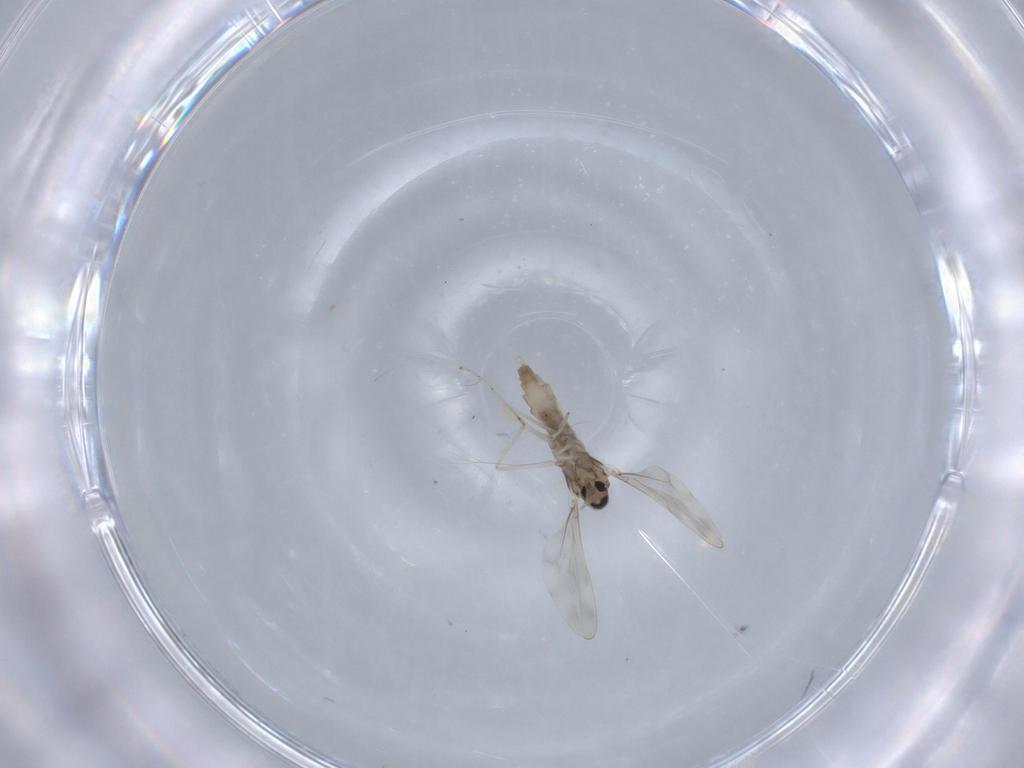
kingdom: Animalia
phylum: Arthropoda
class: Insecta
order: Diptera
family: Cecidomyiidae
